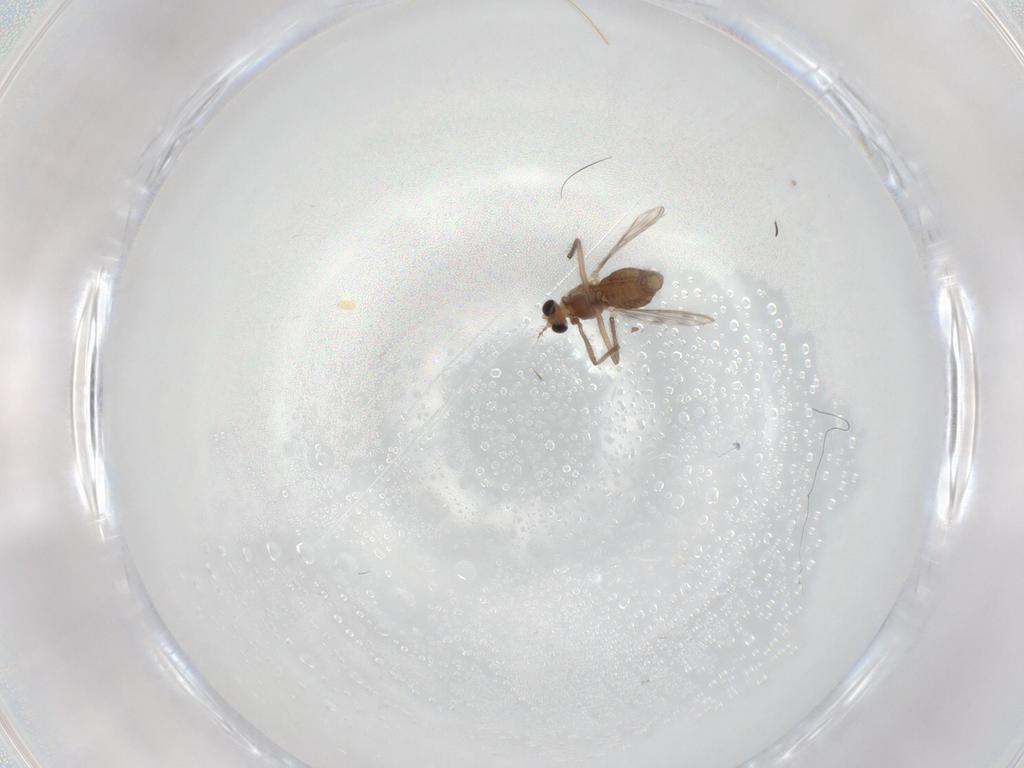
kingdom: Animalia
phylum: Arthropoda
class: Insecta
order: Diptera
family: Chironomidae
